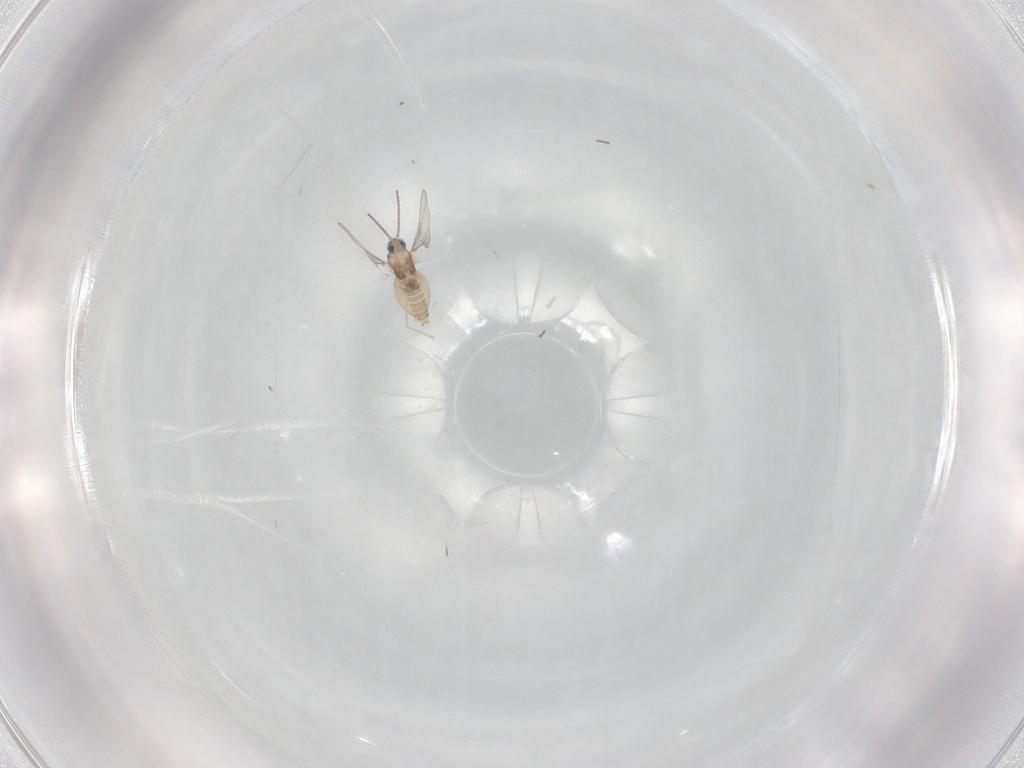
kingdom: Animalia
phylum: Arthropoda
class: Insecta
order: Diptera
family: Cecidomyiidae
